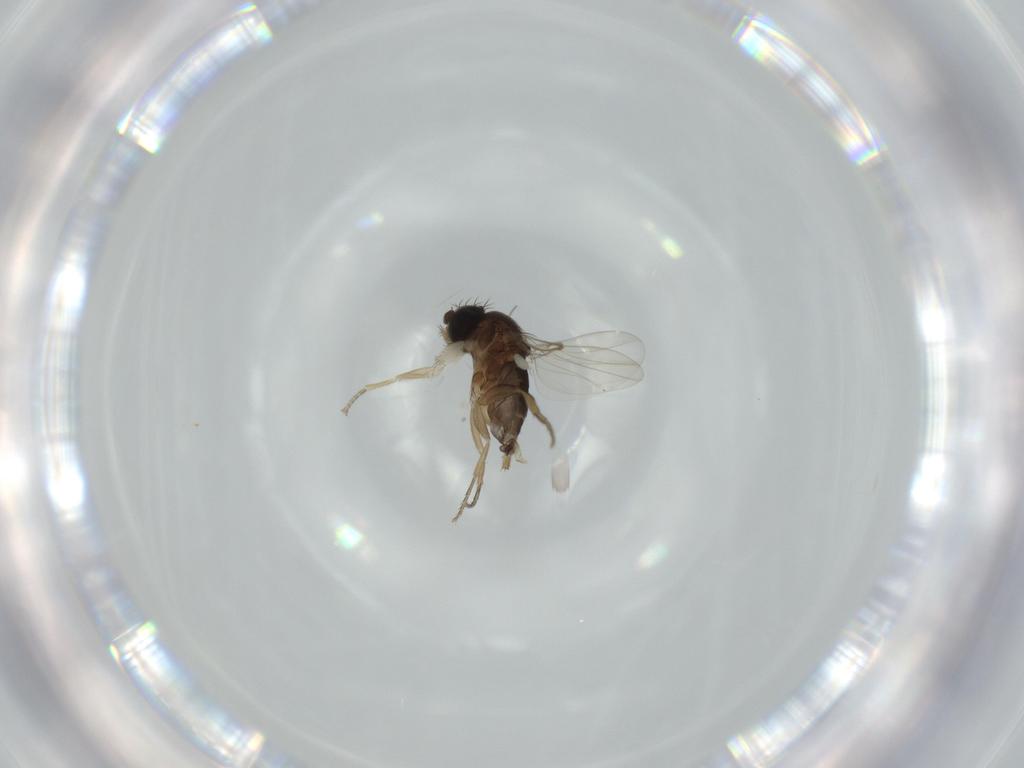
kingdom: Animalia
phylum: Arthropoda
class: Insecta
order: Diptera
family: Phoridae
